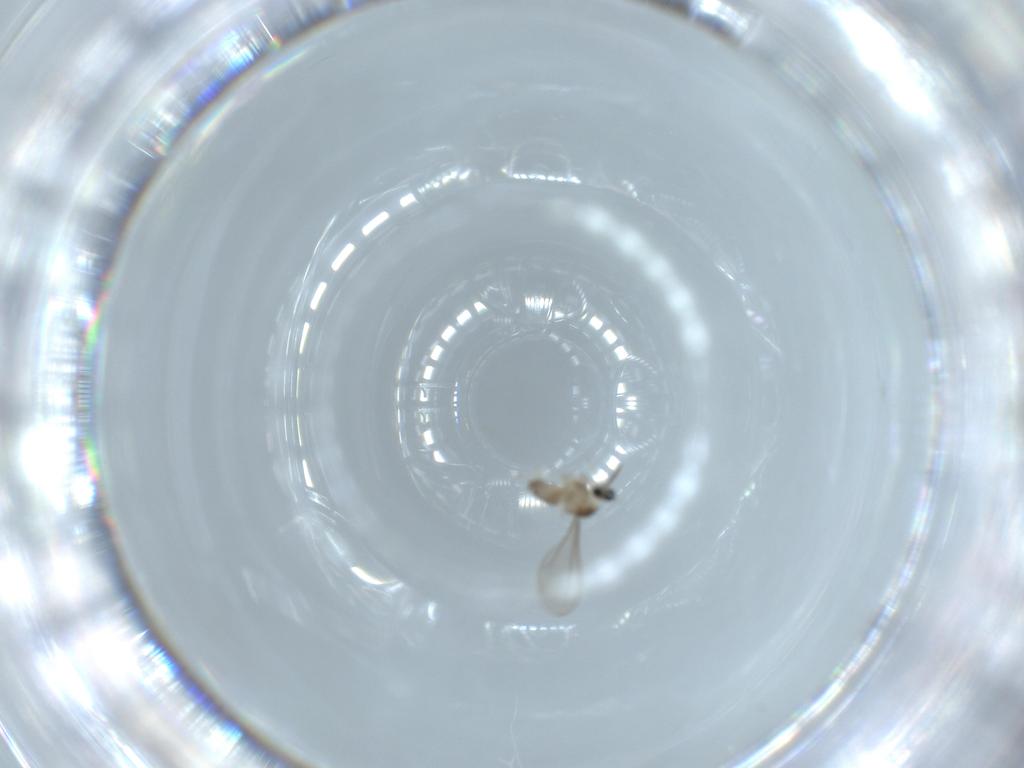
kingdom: Animalia
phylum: Arthropoda
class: Insecta
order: Diptera
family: Cecidomyiidae
